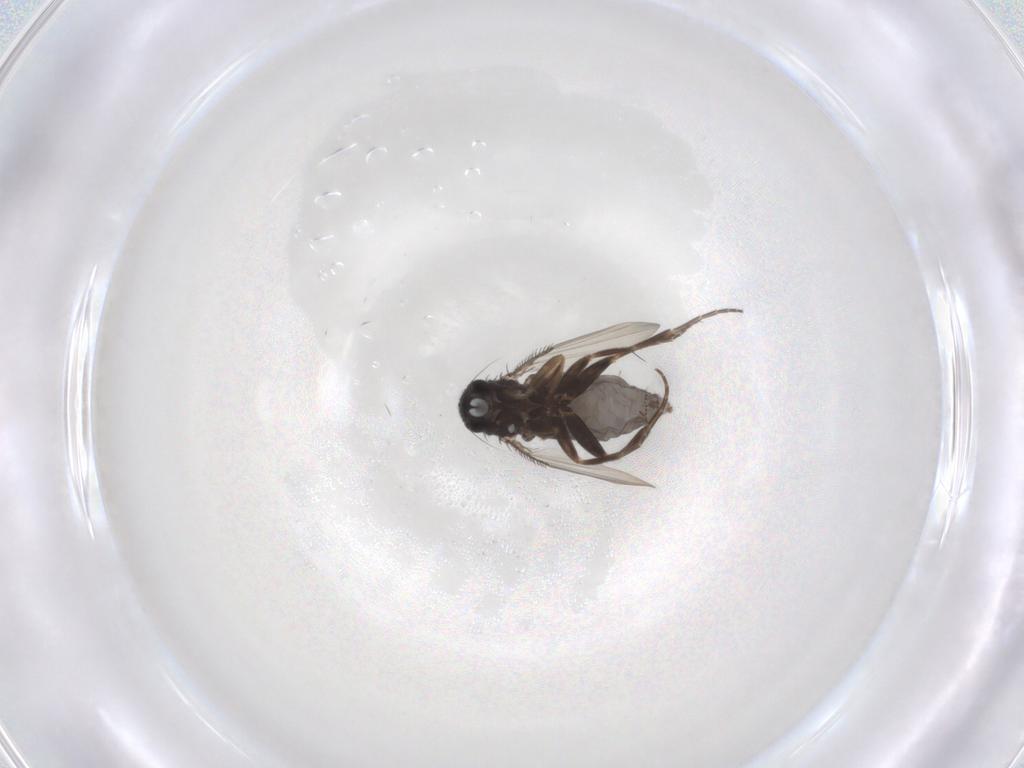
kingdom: Animalia
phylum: Arthropoda
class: Insecta
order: Diptera
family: Phoridae
